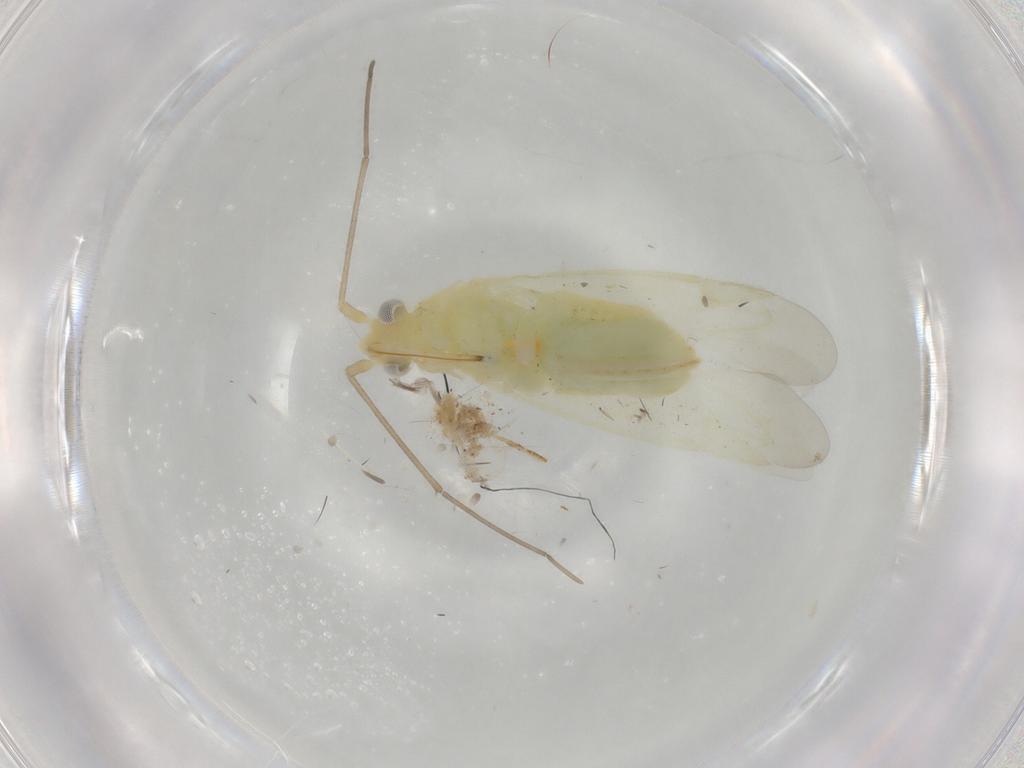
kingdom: Animalia
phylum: Arthropoda
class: Insecta
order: Hemiptera
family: Miridae
